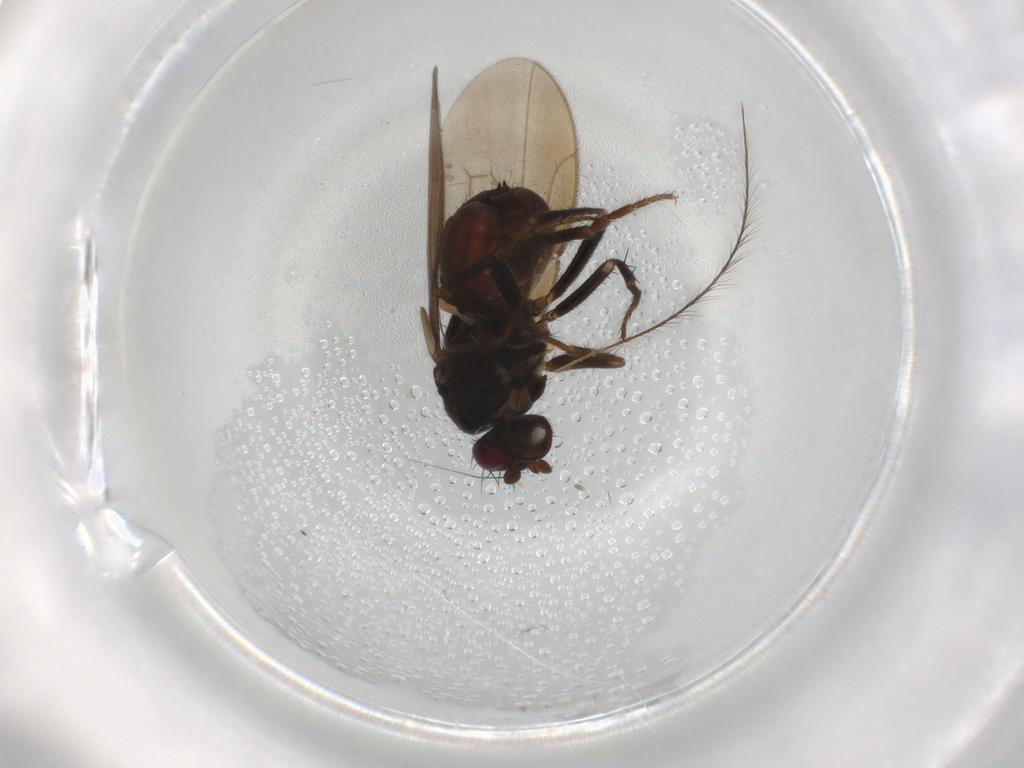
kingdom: Animalia
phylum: Arthropoda
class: Insecta
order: Diptera
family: Sphaeroceridae
